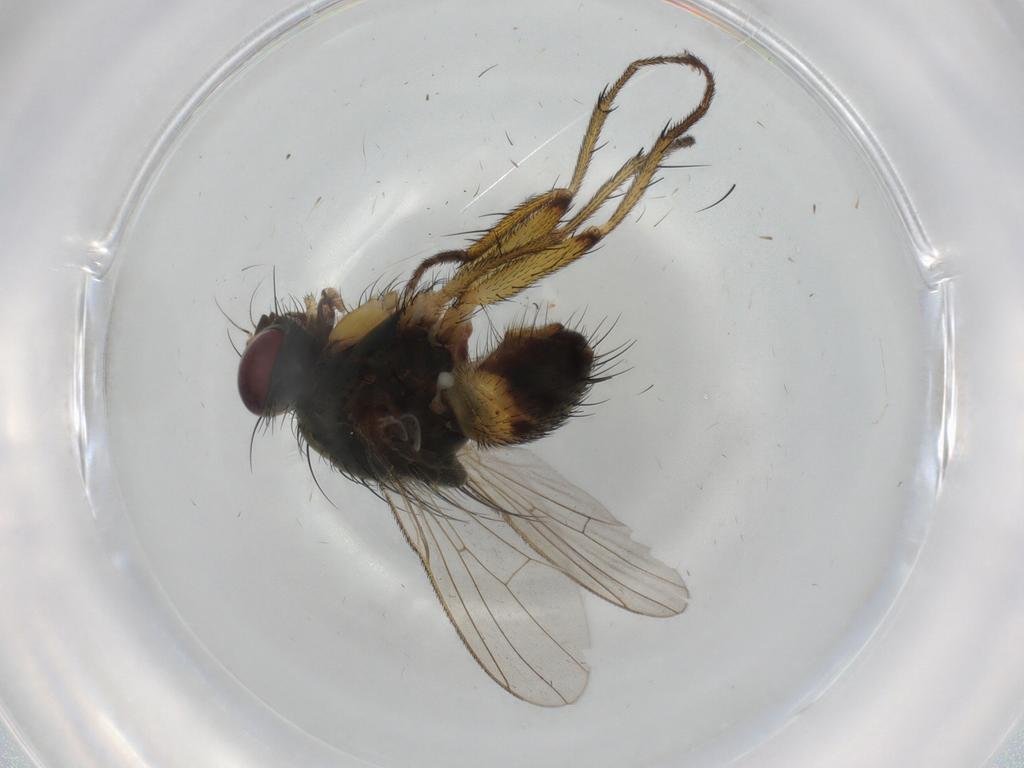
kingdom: Animalia
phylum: Arthropoda
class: Insecta
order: Diptera
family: Muscidae
